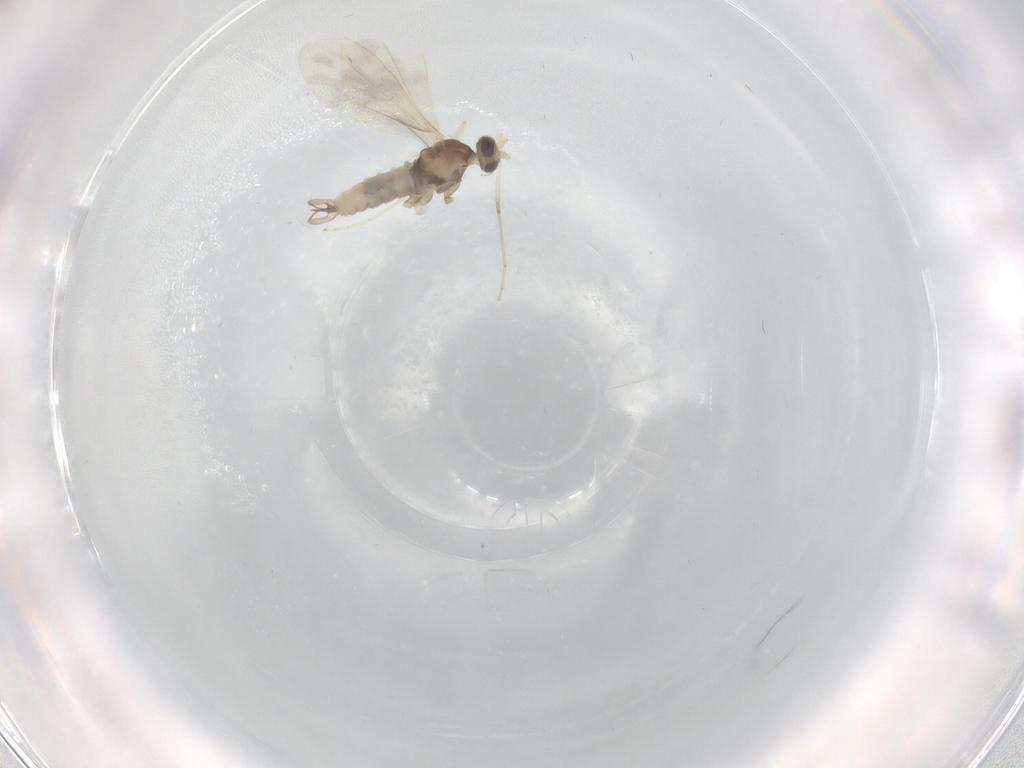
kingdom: Animalia
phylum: Arthropoda
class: Insecta
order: Diptera
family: Cecidomyiidae
